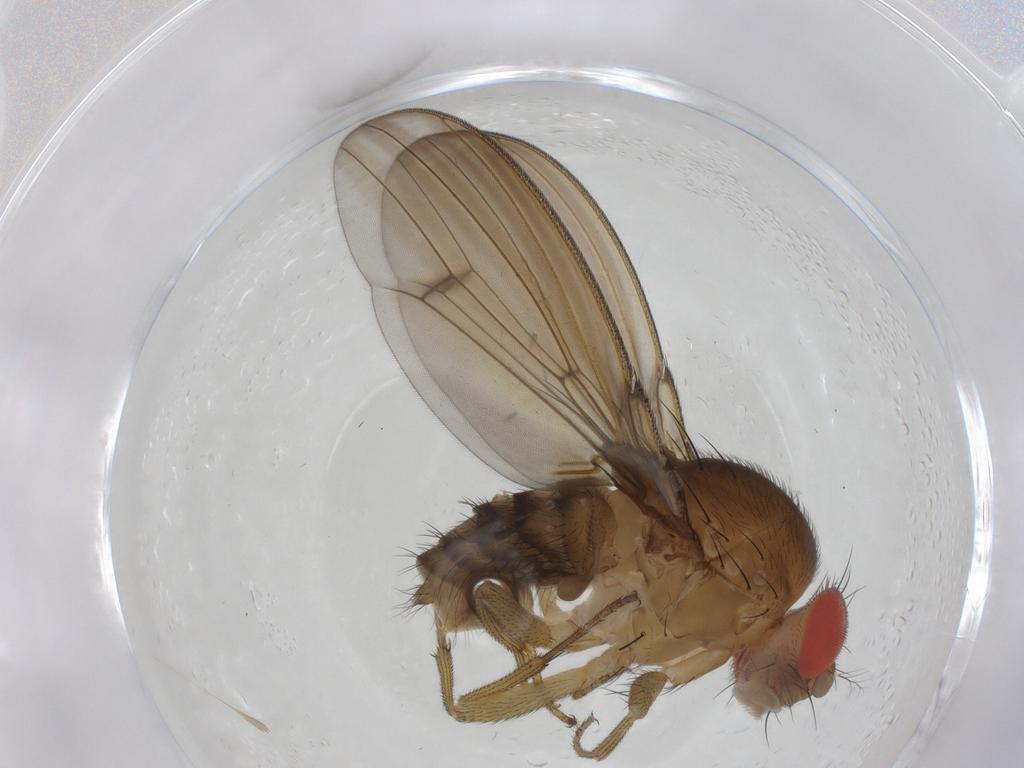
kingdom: Animalia
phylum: Arthropoda
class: Insecta
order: Diptera
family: Drosophilidae
